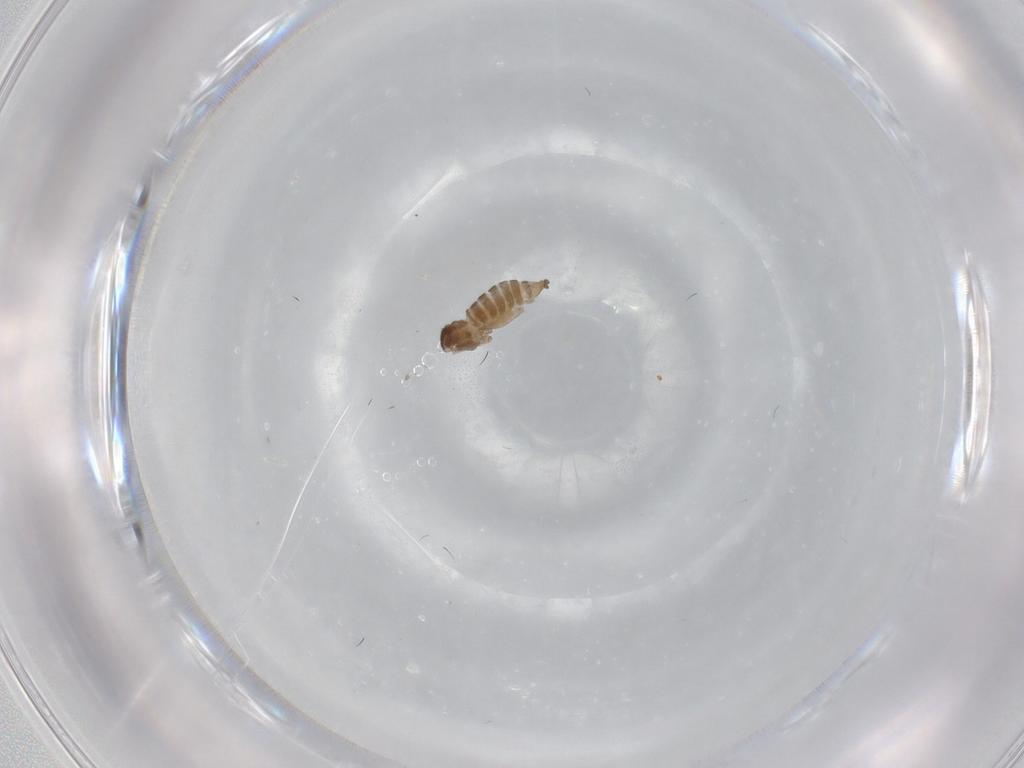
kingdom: Animalia
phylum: Arthropoda
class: Insecta
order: Diptera
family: Cecidomyiidae
